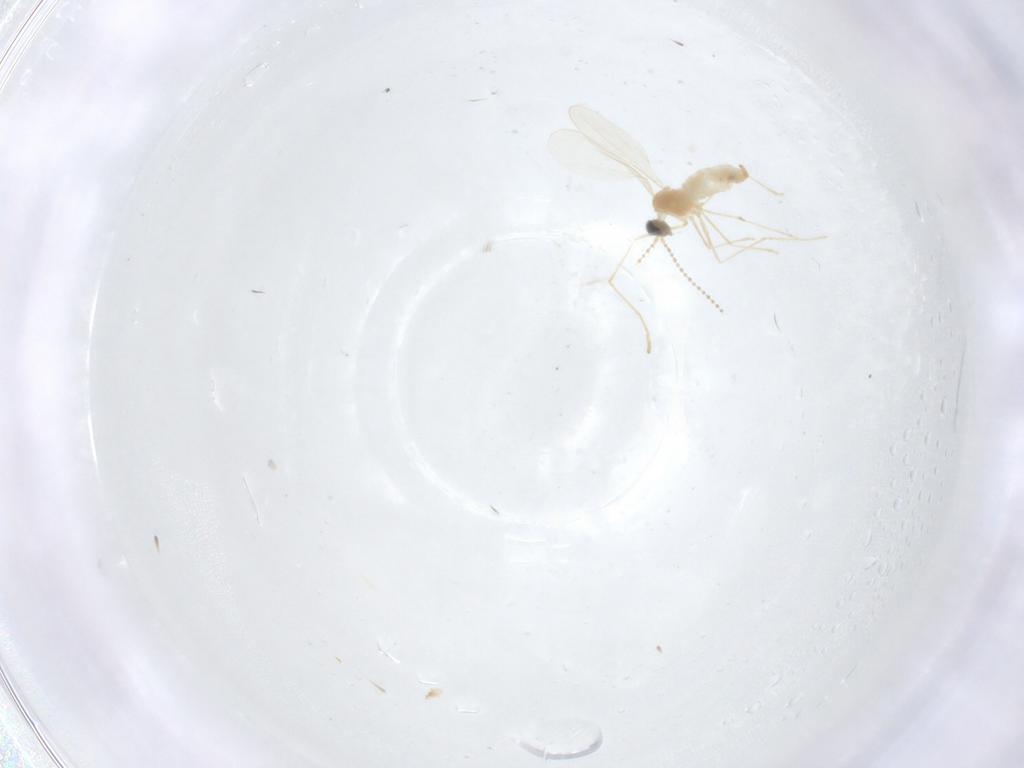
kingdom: Animalia
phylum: Arthropoda
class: Insecta
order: Diptera
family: Cecidomyiidae
